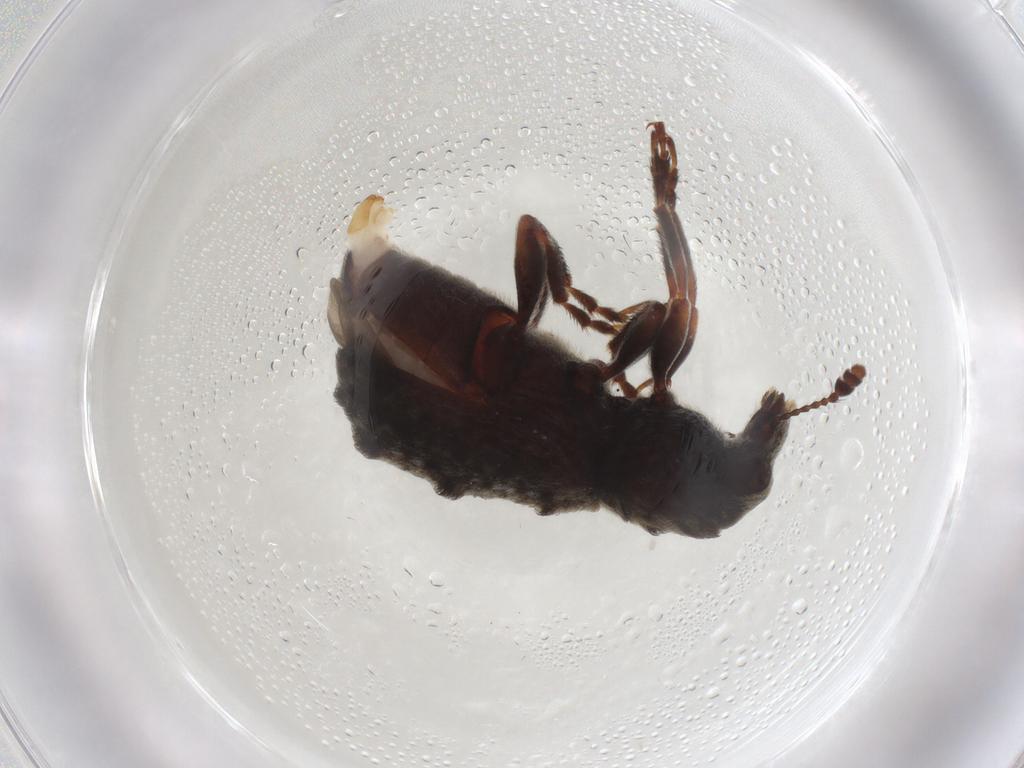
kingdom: Animalia
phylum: Arthropoda
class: Insecta
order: Coleoptera
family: Anthribidae
